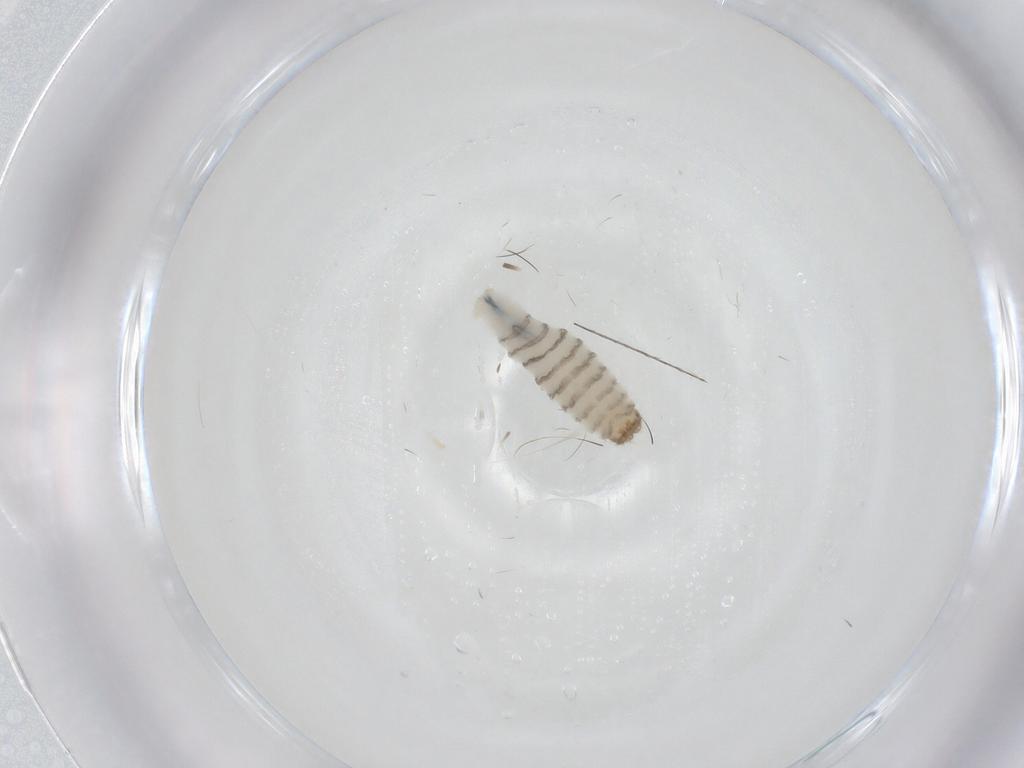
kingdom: Animalia
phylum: Arthropoda
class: Insecta
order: Diptera
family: Sarcophagidae
